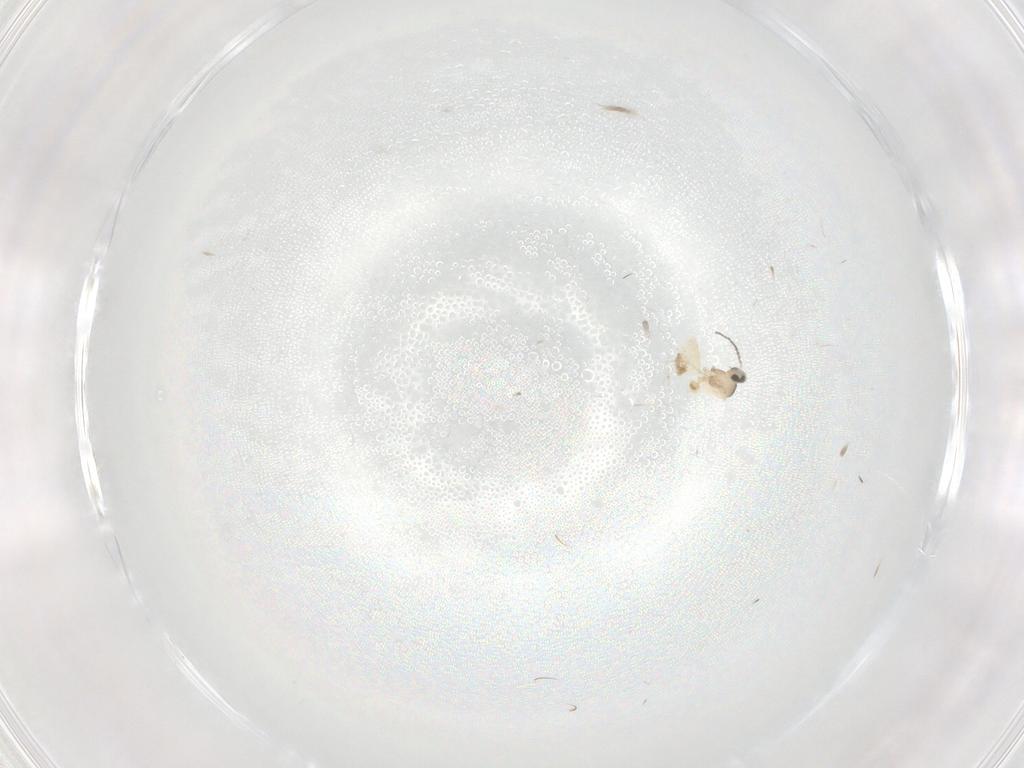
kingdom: Animalia
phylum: Arthropoda
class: Insecta
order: Diptera
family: Cecidomyiidae
